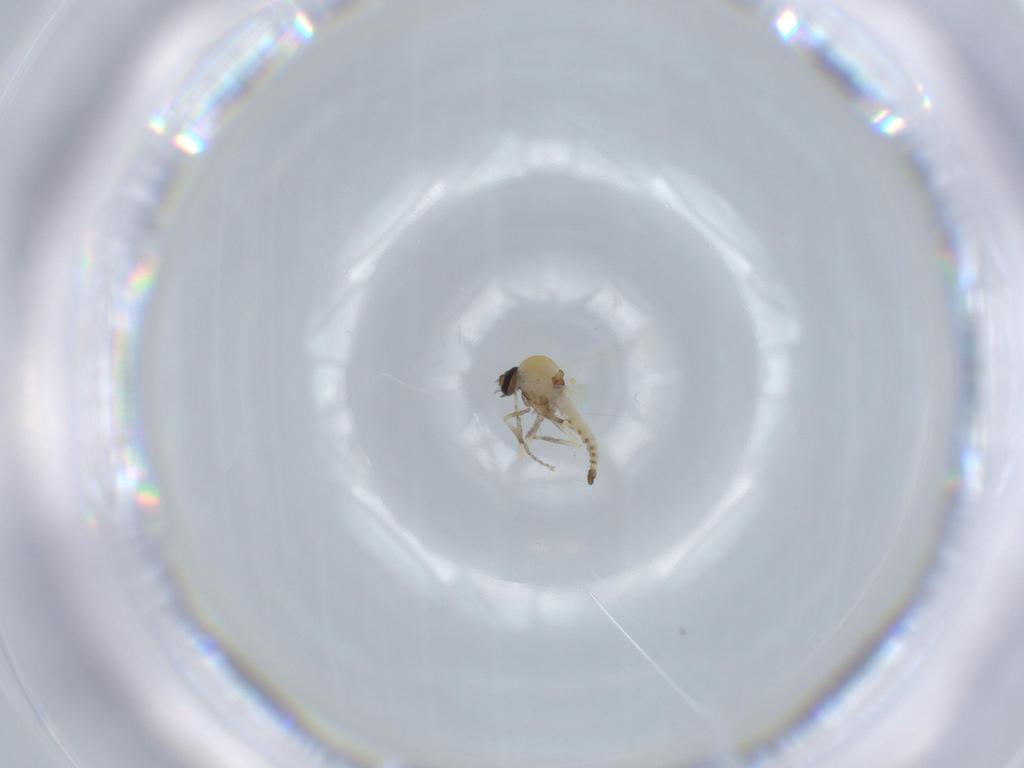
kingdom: Animalia
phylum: Arthropoda
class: Insecta
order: Diptera
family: Ceratopogonidae
